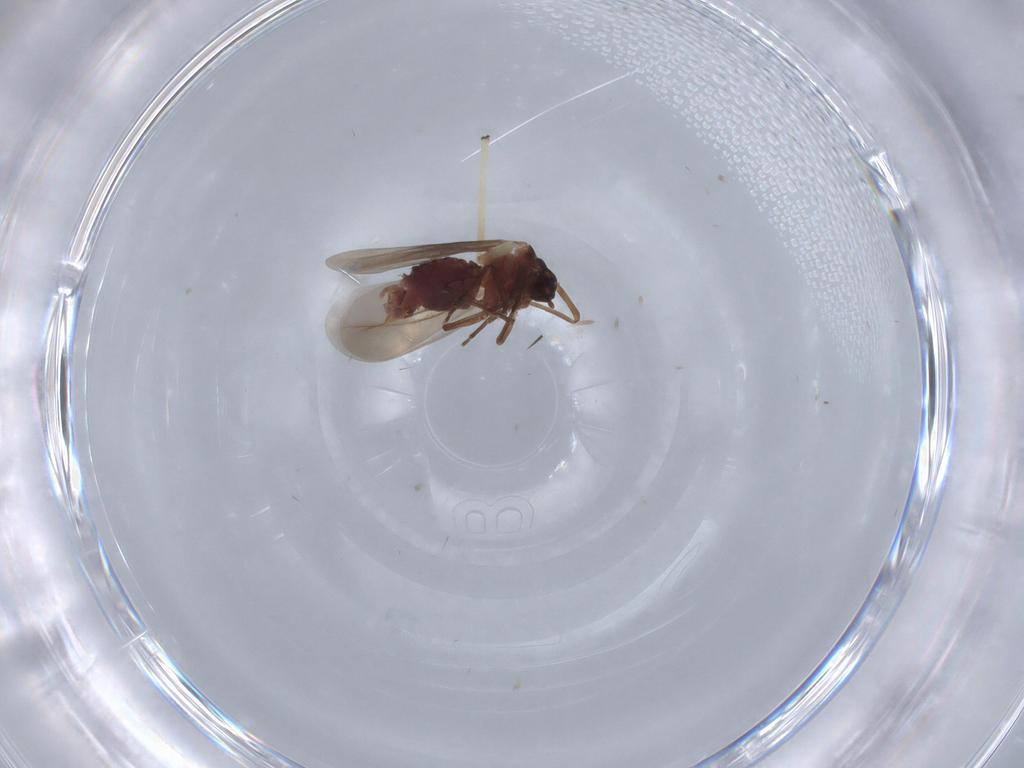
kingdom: Animalia
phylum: Arthropoda
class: Insecta
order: Hemiptera
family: Aleyrodidae
